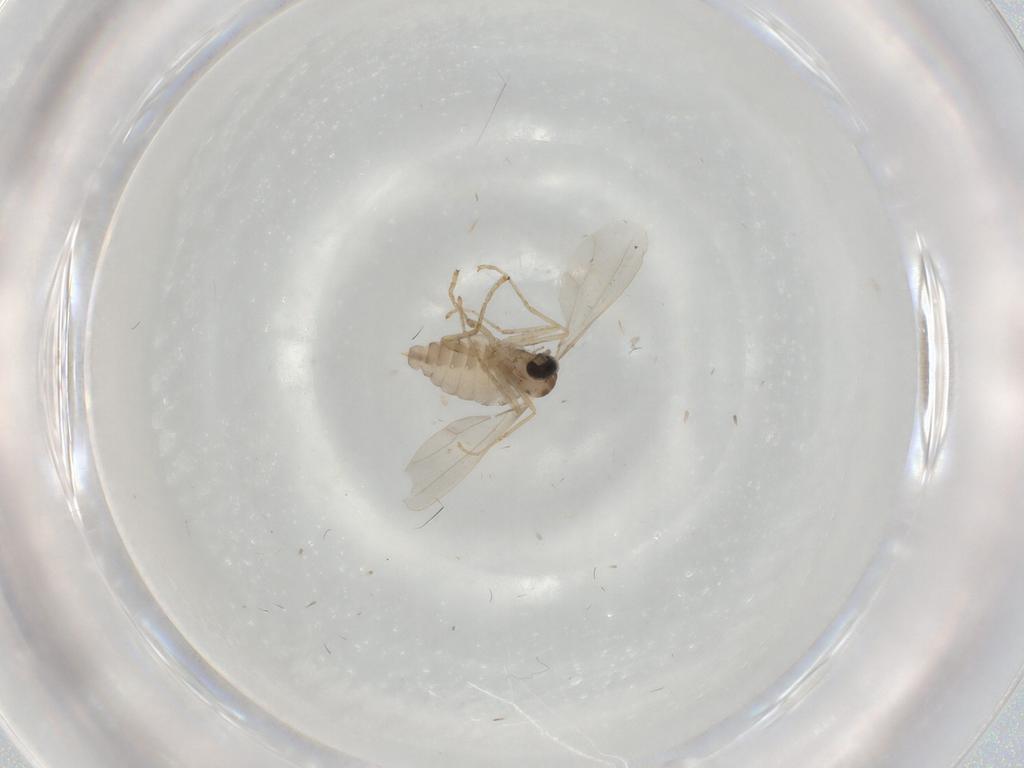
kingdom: Animalia
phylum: Arthropoda
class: Insecta
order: Diptera
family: Cecidomyiidae
